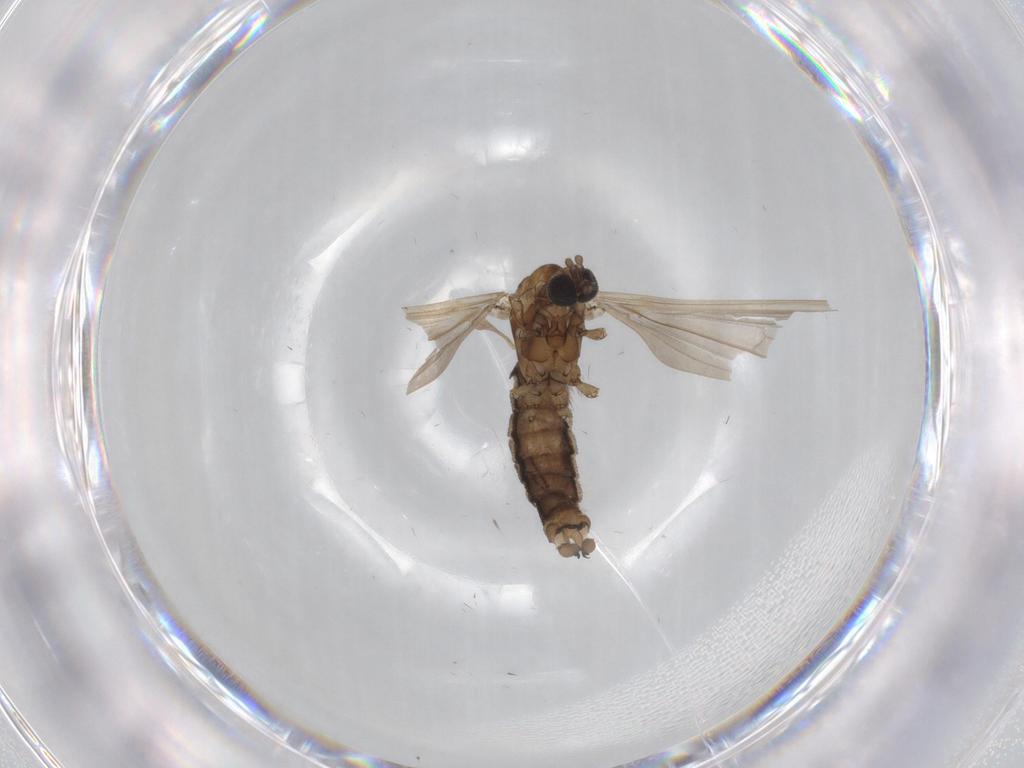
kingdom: Animalia
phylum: Arthropoda
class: Insecta
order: Diptera
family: Limoniidae
